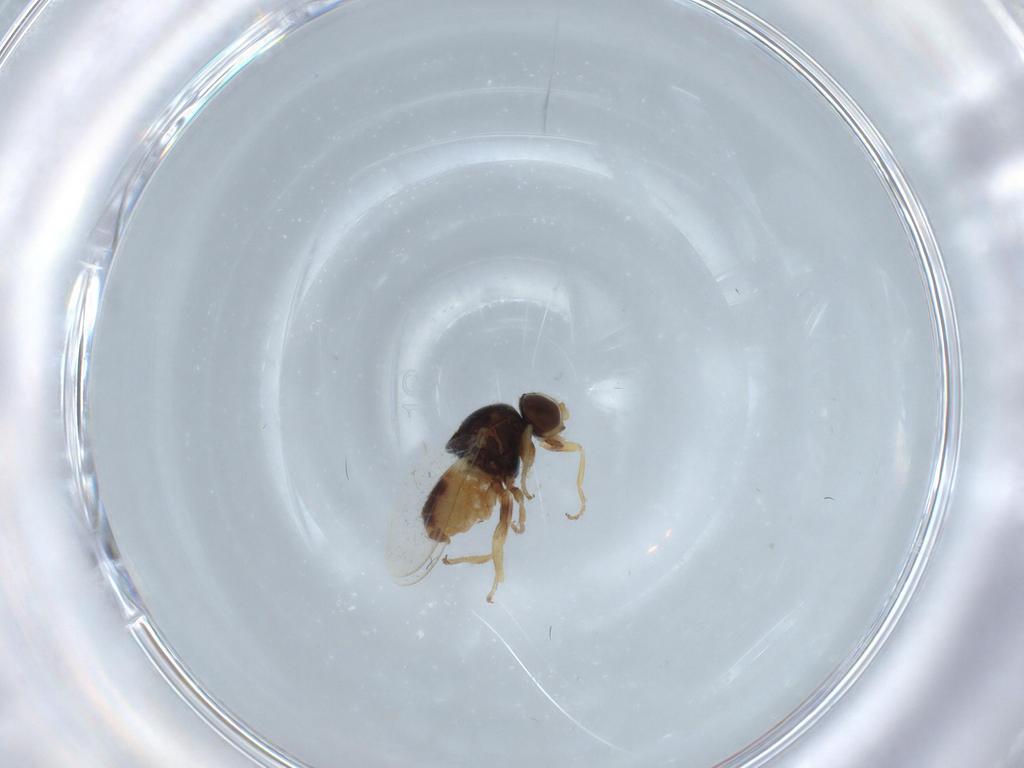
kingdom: Animalia
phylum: Arthropoda
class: Insecta
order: Diptera
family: Chloropidae
